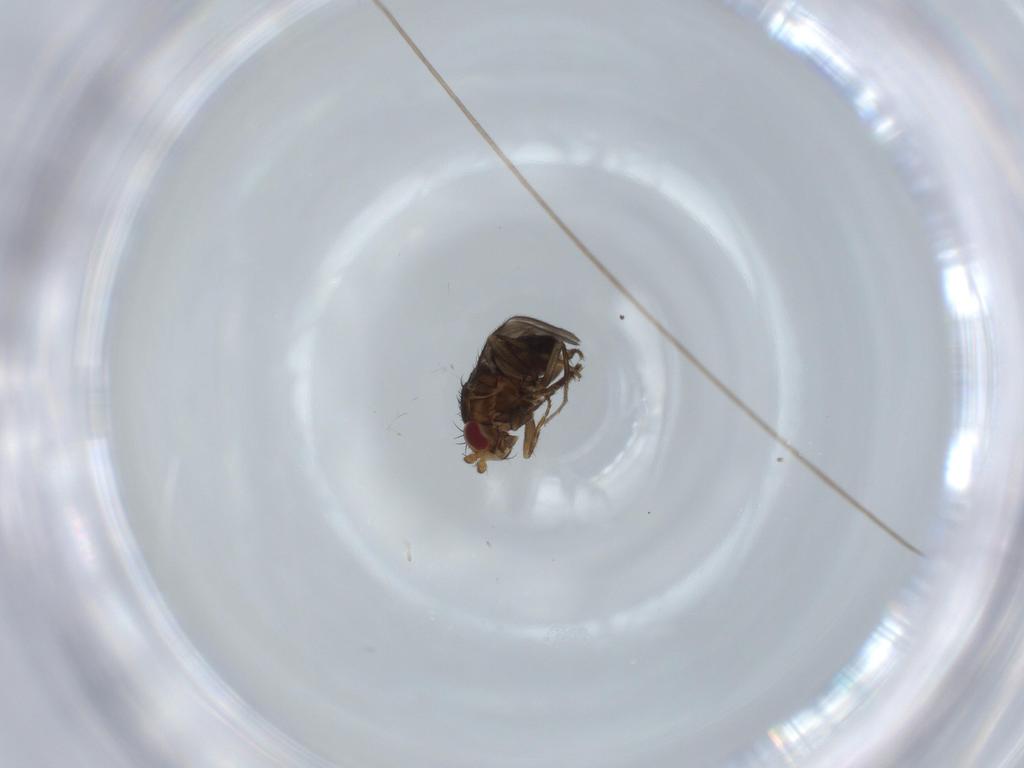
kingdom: Animalia
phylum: Arthropoda
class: Insecta
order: Diptera
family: Sphaeroceridae
